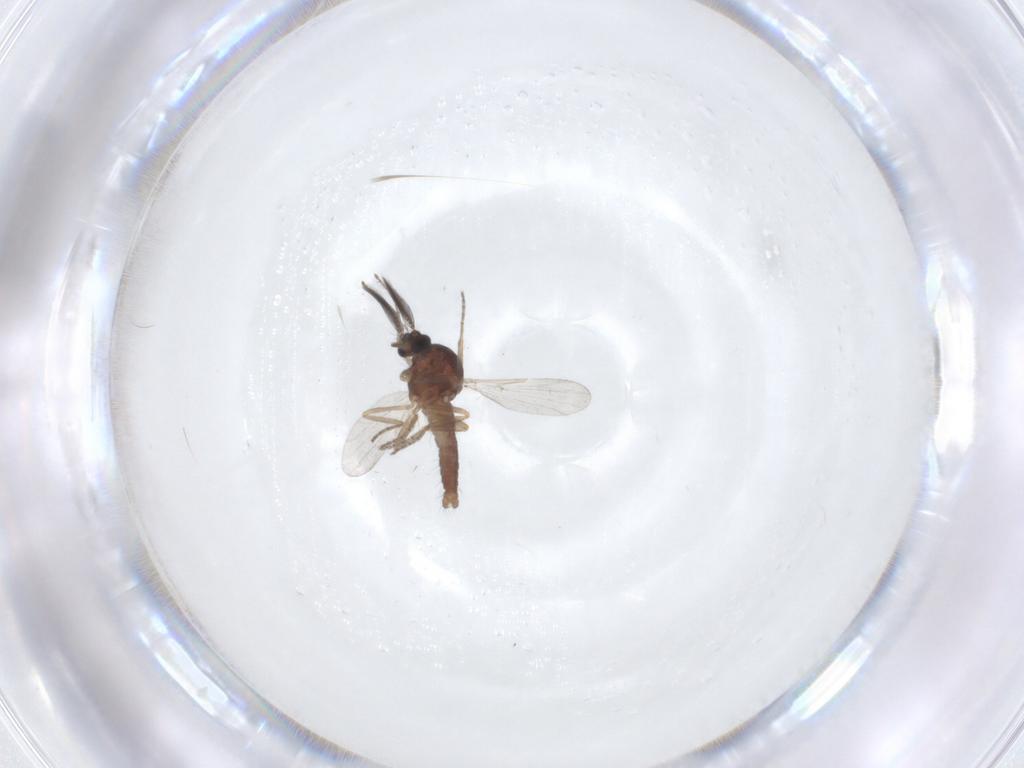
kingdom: Animalia
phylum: Arthropoda
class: Insecta
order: Diptera
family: Ceratopogonidae
